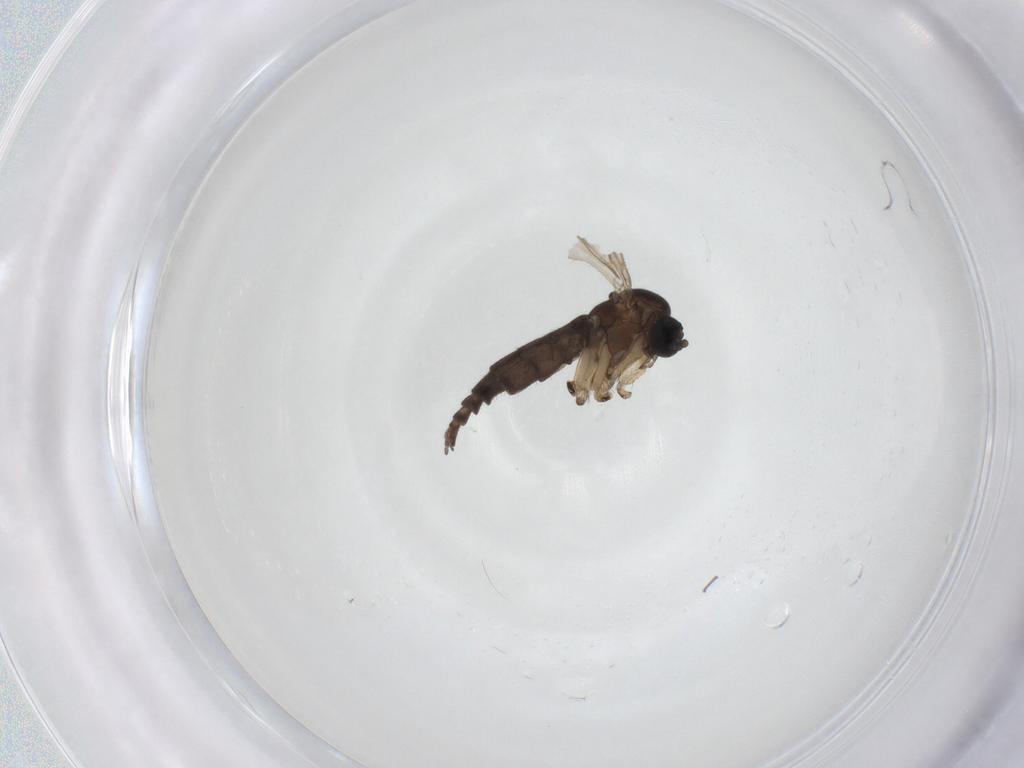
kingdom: Animalia
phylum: Arthropoda
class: Insecta
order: Diptera
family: Sciaridae
